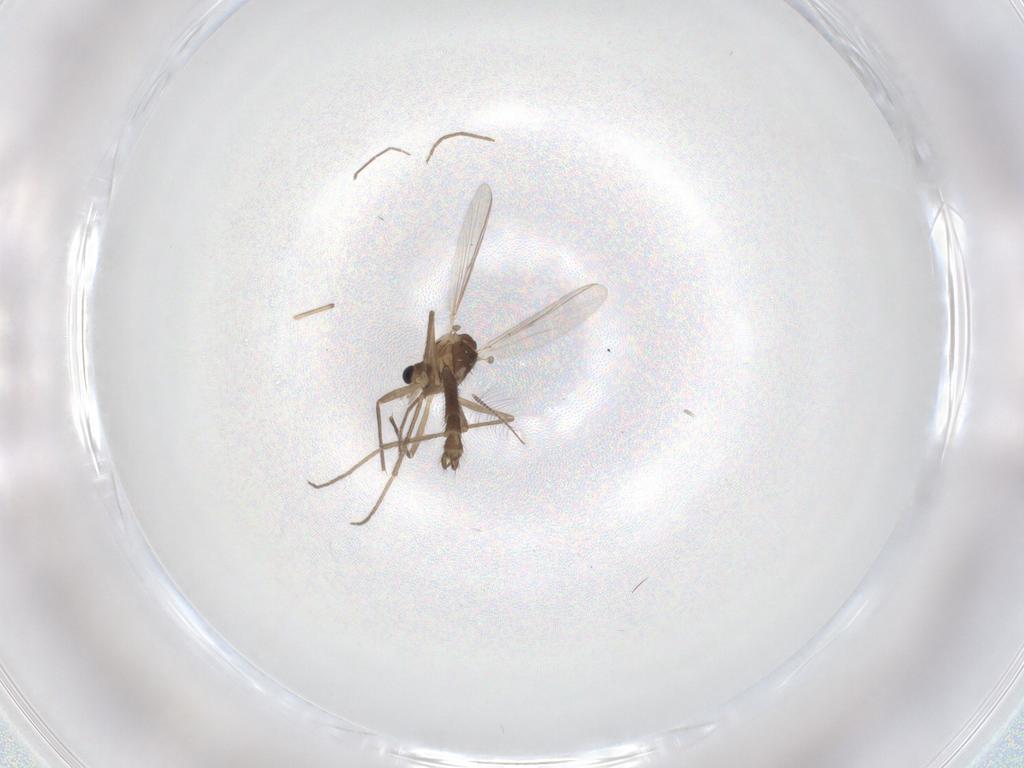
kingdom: Animalia
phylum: Arthropoda
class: Insecta
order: Diptera
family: Chironomidae
